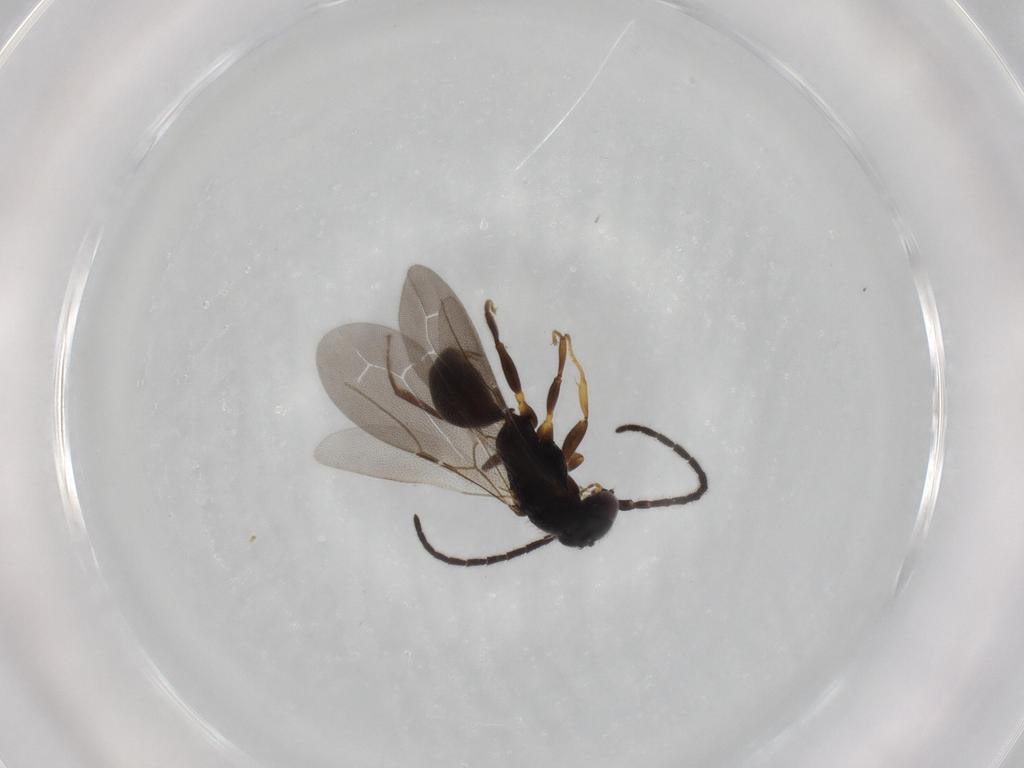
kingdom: Animalia
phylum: Arthropoda
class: Insecta
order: Hymenoptera
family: Bethylidae
